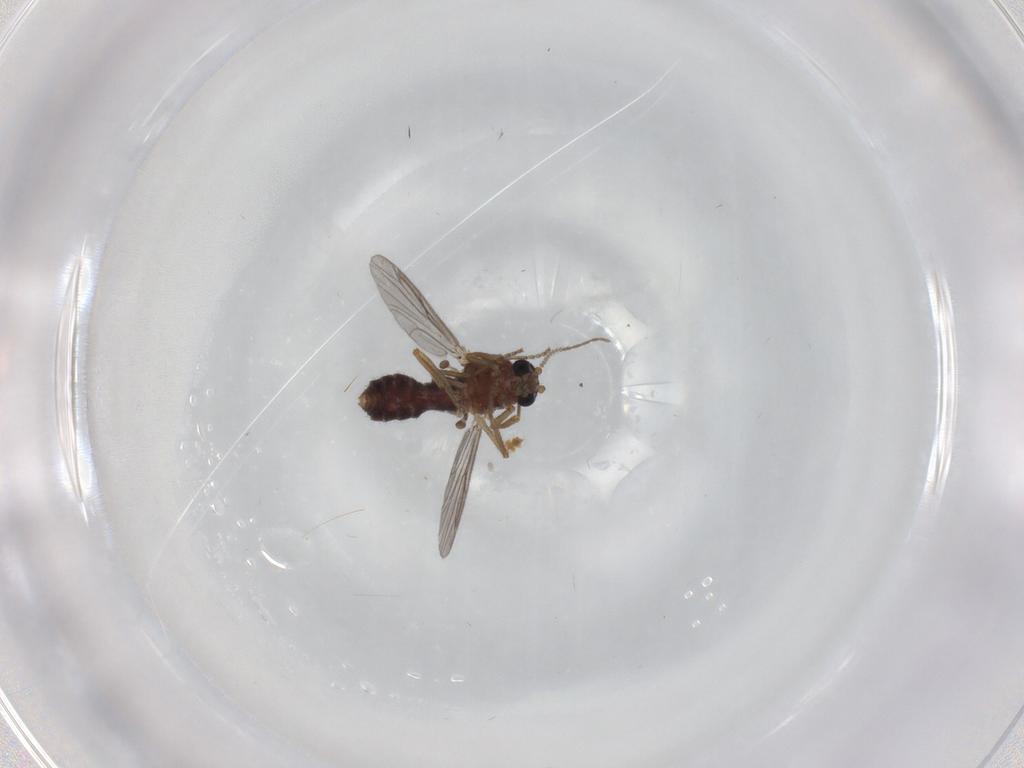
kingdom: Animalia
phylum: Arthropoda
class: Insecta
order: Diptera
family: Ceratopogonidae
